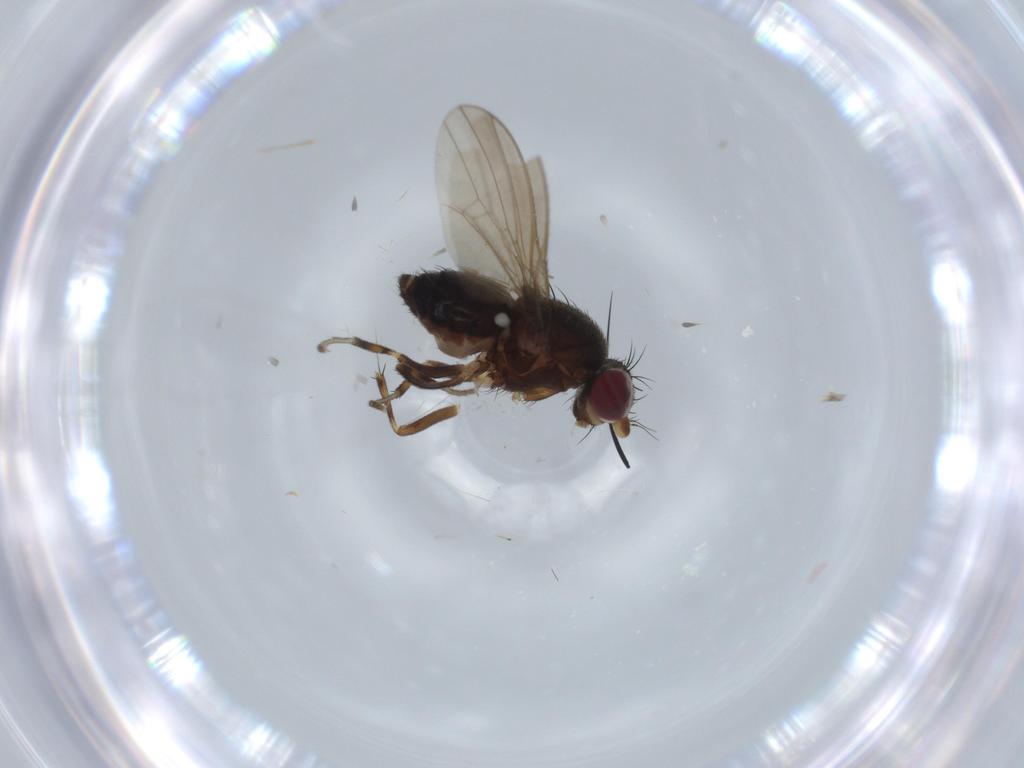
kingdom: Animalia
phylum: Arthropoda
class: Insecta
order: Diptera
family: Heleomyzidae
